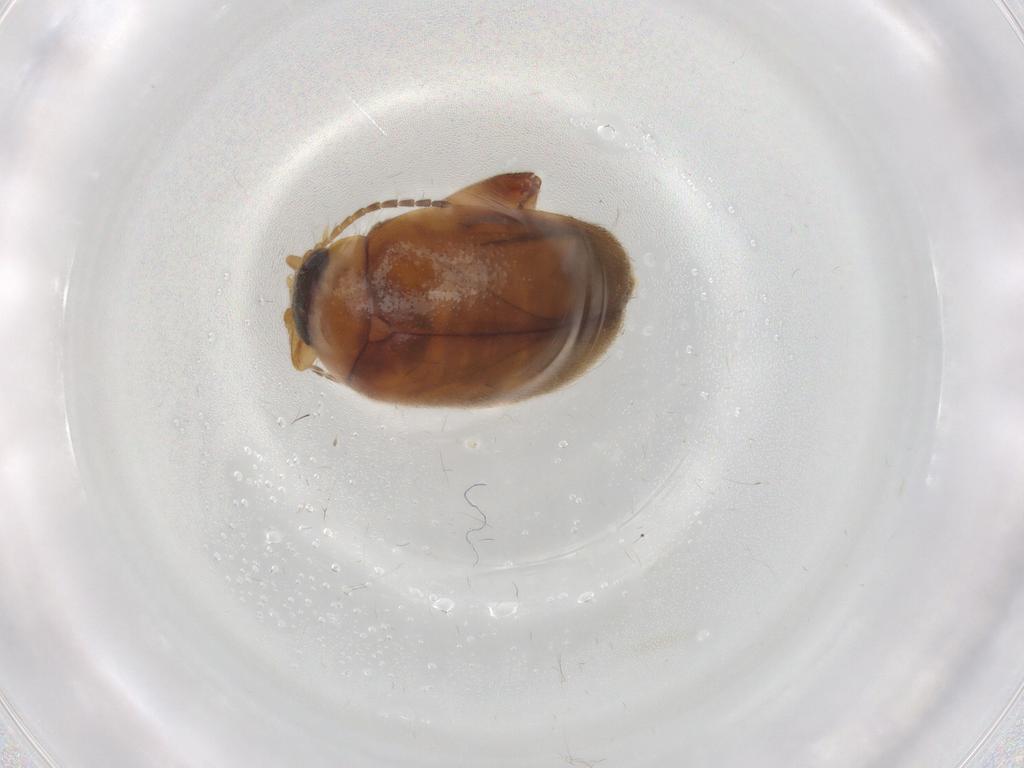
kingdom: Animalia
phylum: Arthropoda
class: Insecta
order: Coleoptera
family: Scirtidae
